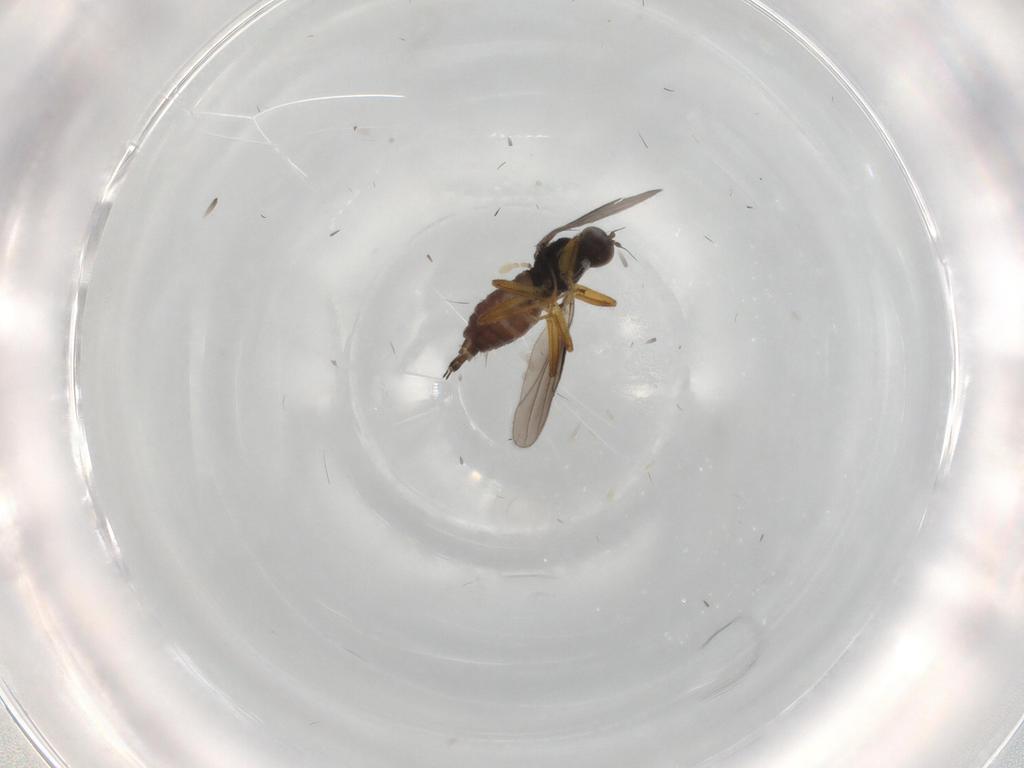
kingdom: Animalia
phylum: Arthropoda
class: Insecta
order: Diptera
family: Hybotidae
